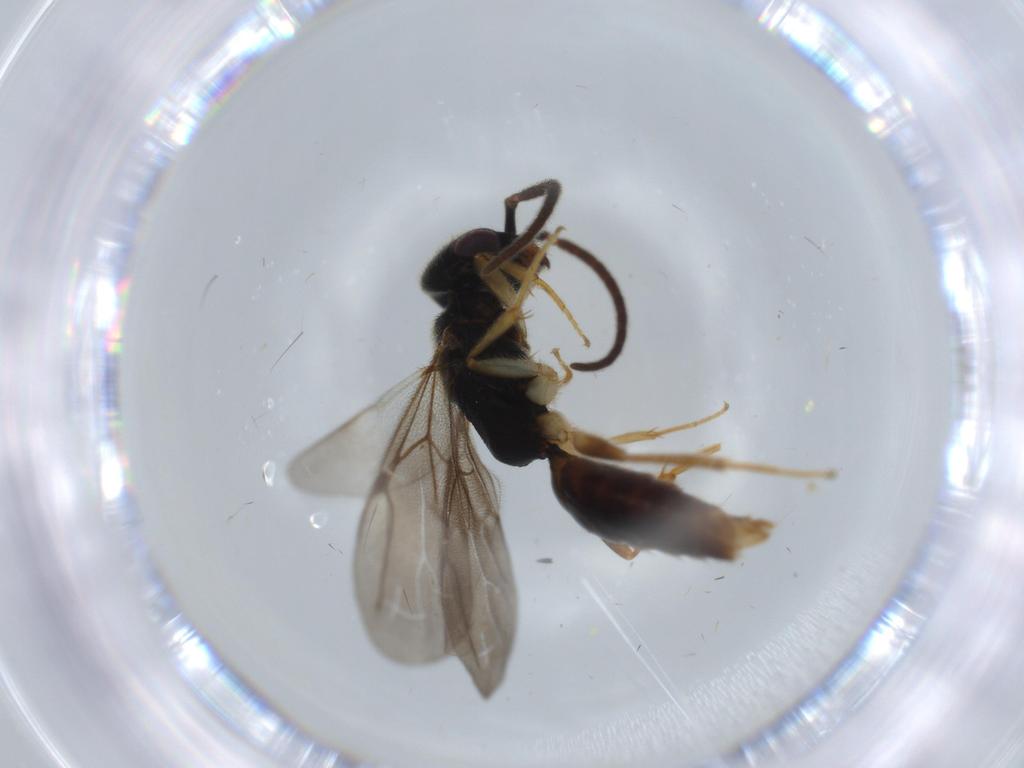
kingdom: Animalia
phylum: Arthropoda
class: Insecta
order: Hymenoptera
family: Bethylidae
